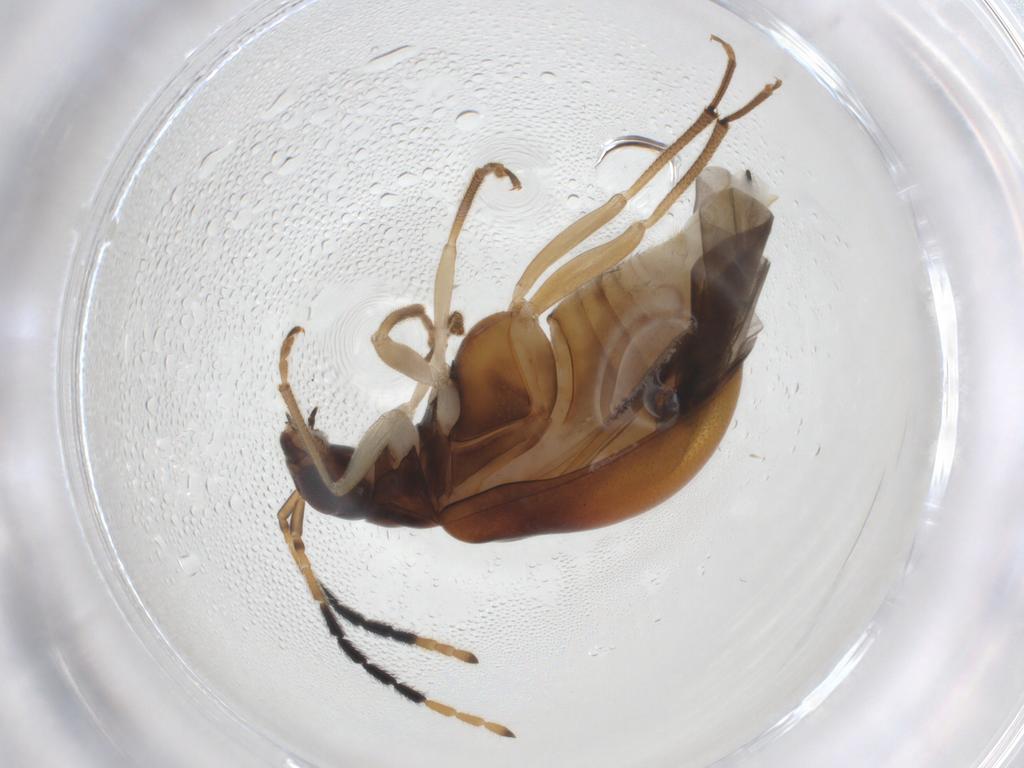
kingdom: Animalia
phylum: Arthropoda
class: Insecta
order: Coleoptera
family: Chrysomelidae
